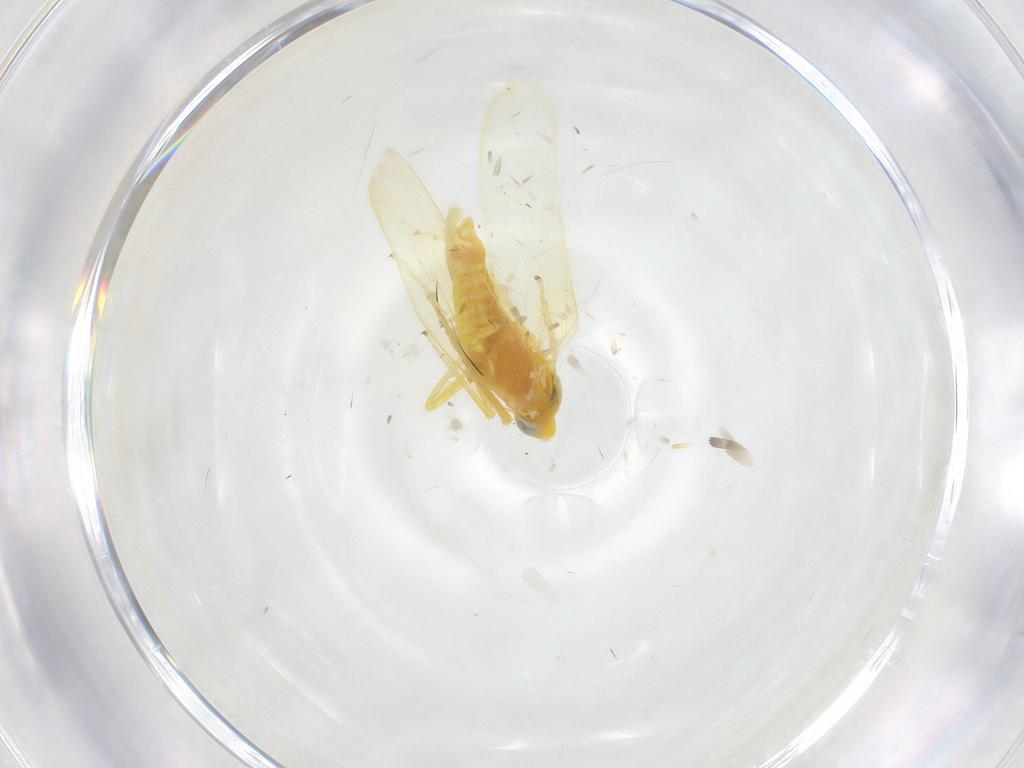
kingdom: Animalia
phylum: Arthropoda
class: Insecta
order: Hemiptera
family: Cicadellidae
